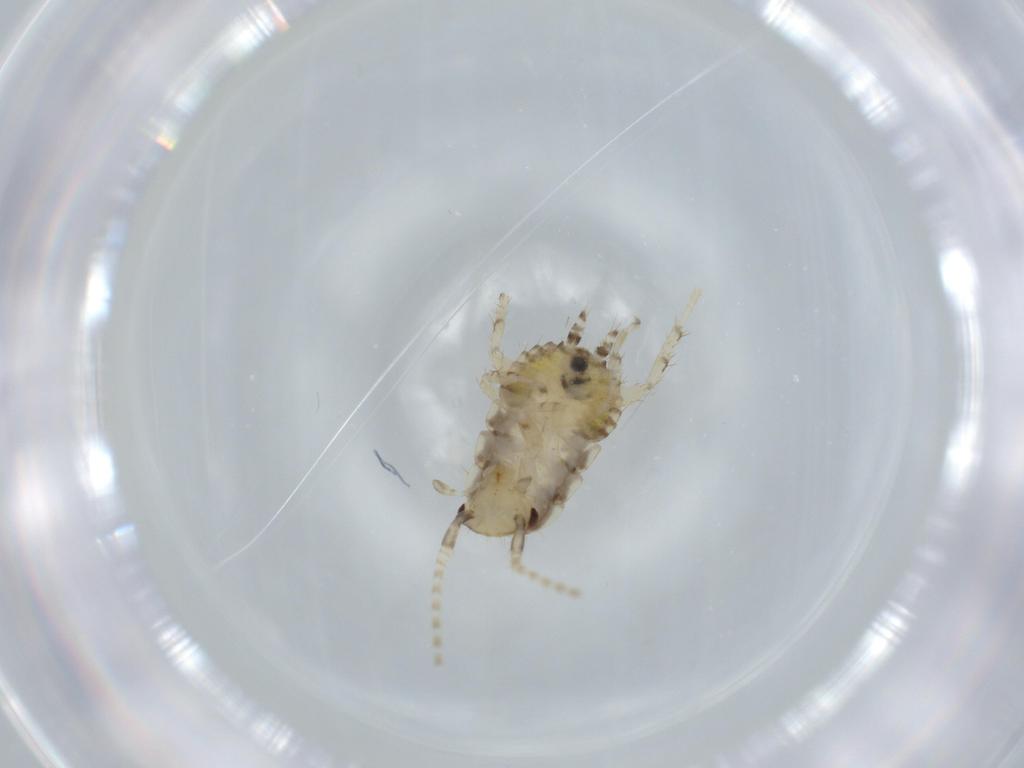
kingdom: Animalia
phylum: Arthropoda
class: Insecta
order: Blattodea
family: Ectobiidae
